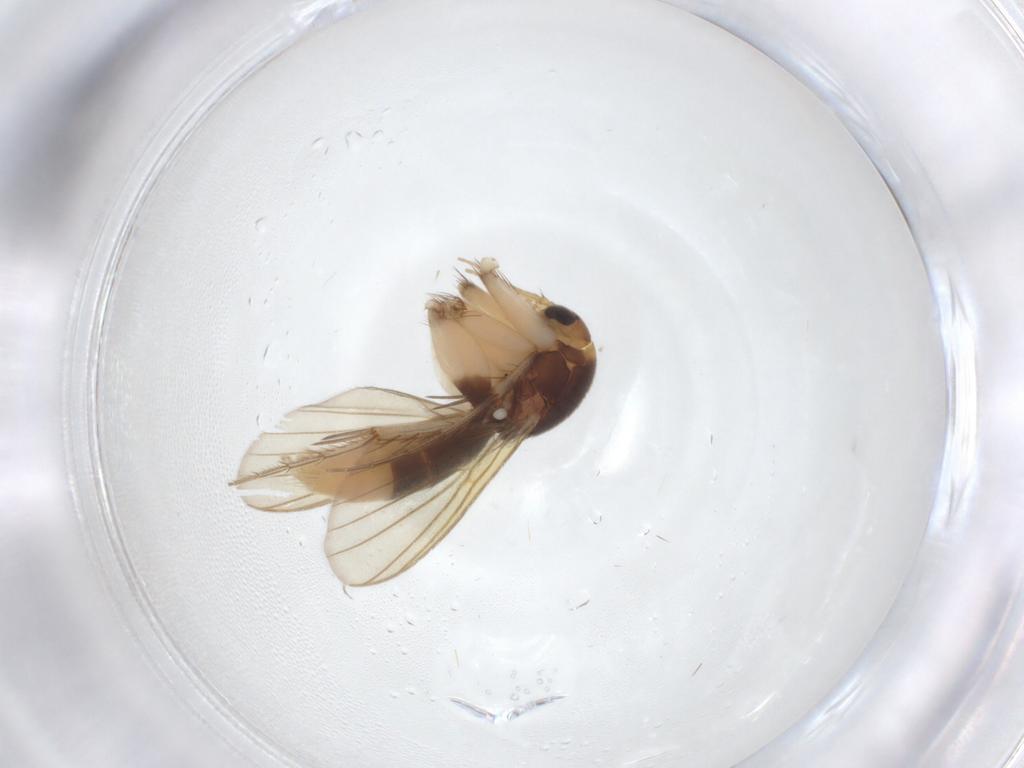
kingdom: Animalia
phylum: Arthropoda
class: Insecta
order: Diptera
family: Mycetophilidae
